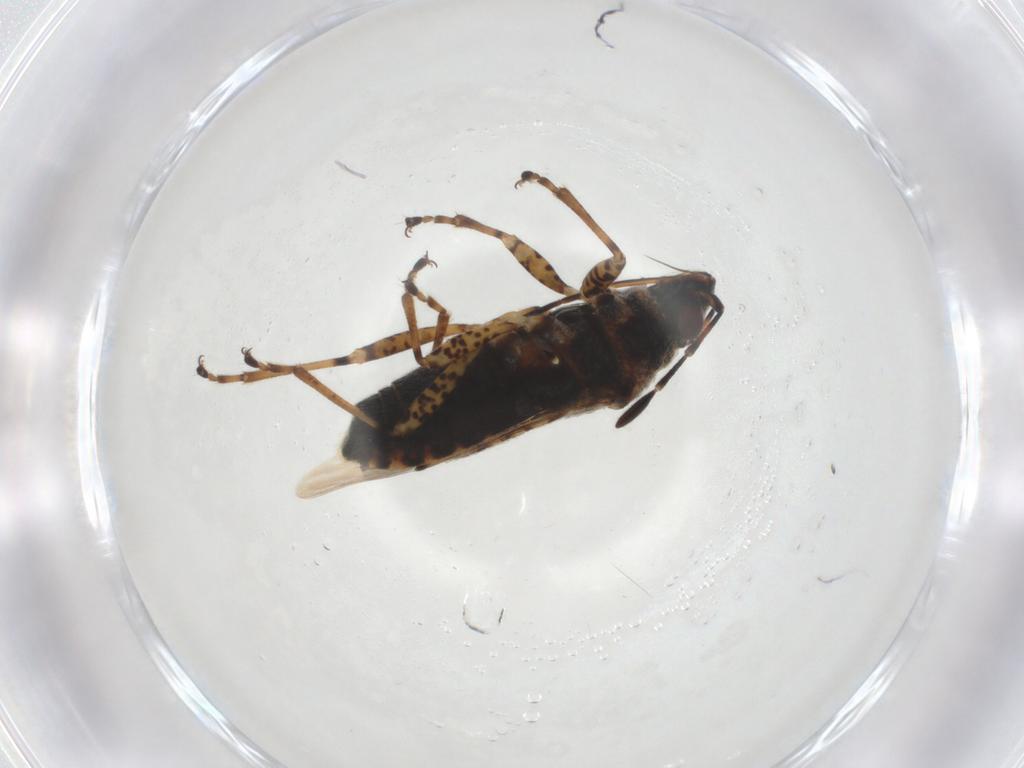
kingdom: Animalia
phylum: Arthropoda
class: Insecta
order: Hemiptera
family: Lygaeidae
